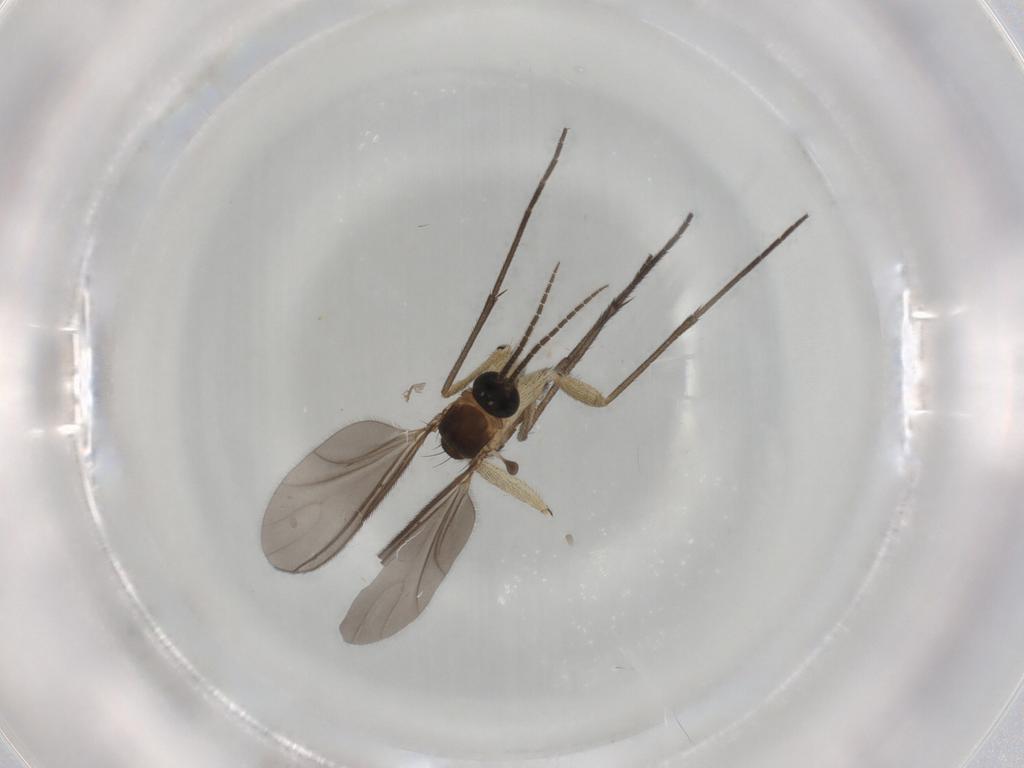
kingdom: Animalia
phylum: Arthropoda
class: Insecta
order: Diptera
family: Sciaridae
